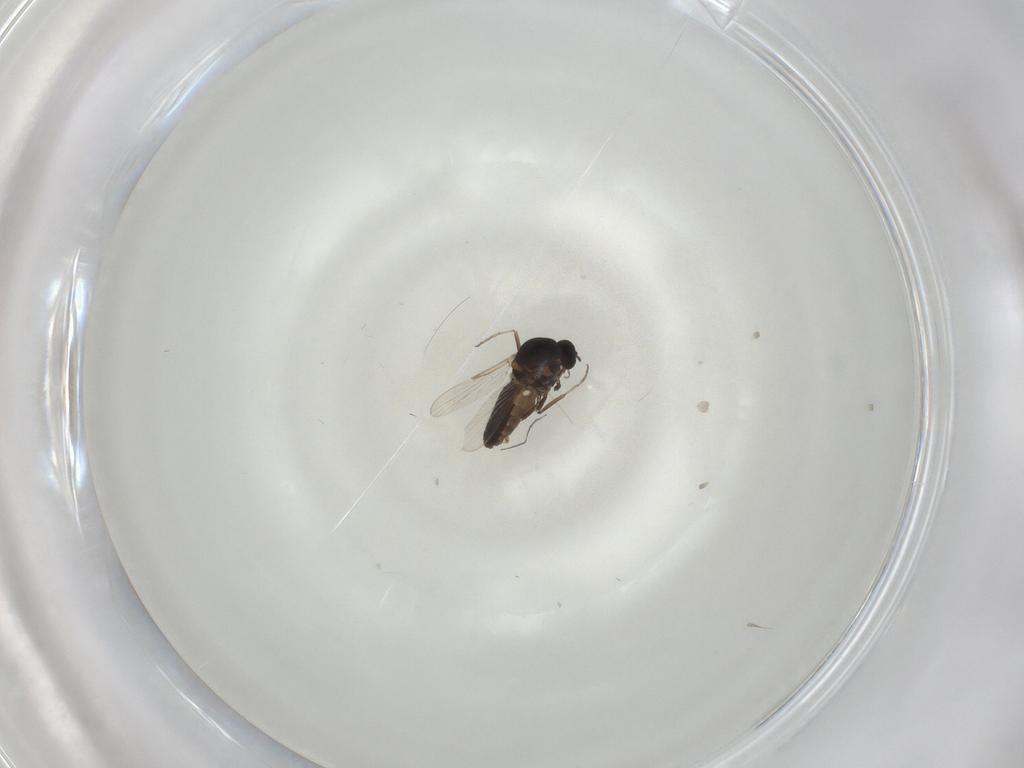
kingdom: Animalia
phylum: Arthropoda
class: Insecta
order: Diptera
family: Ceratopogonidae
